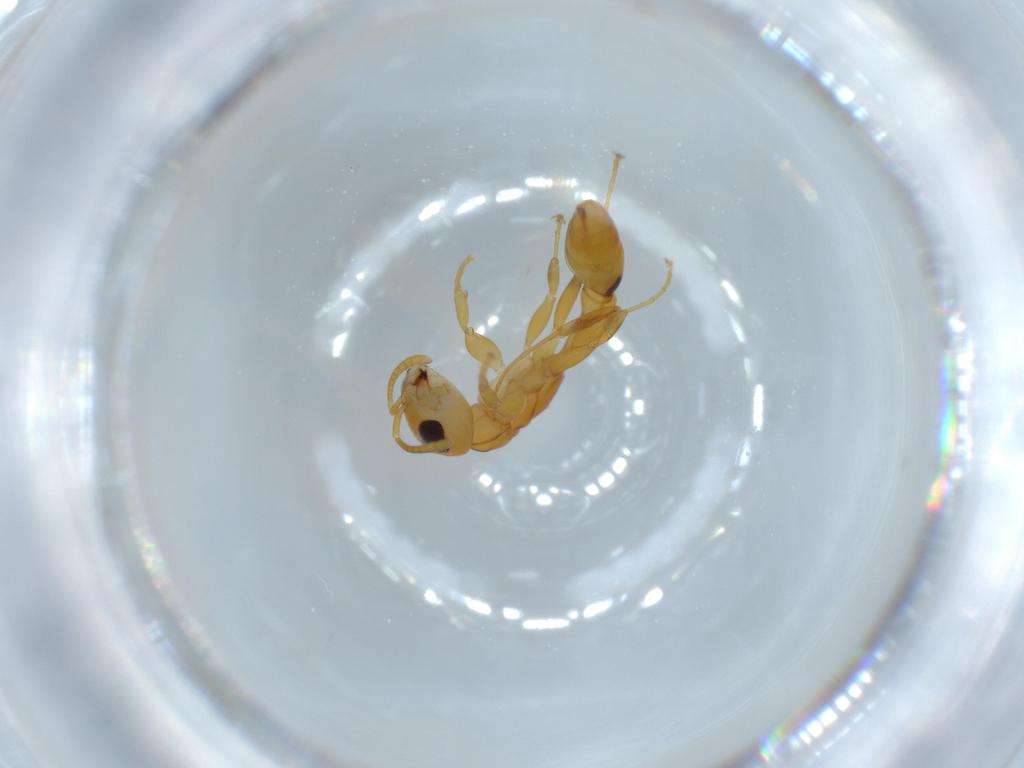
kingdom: Animalia
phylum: Arthropoda
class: Insecta
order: Hymenoptera
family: Formicidae
